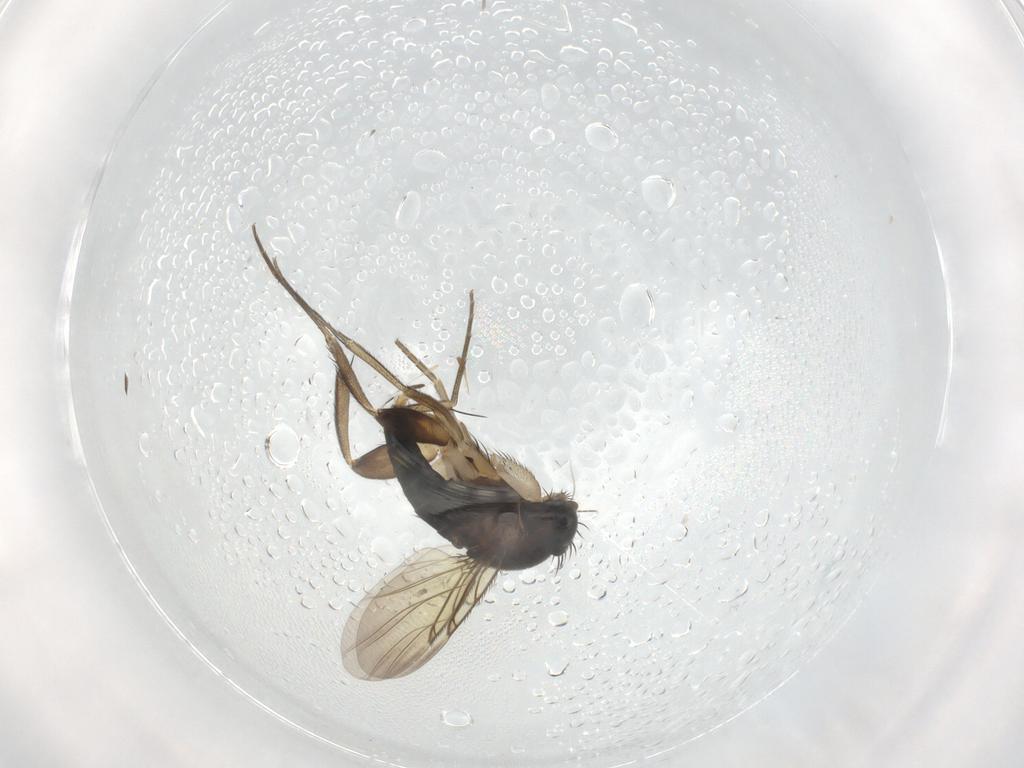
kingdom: Animalia
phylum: Arthropoda
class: Insecta
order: Diptera
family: Phoridae
